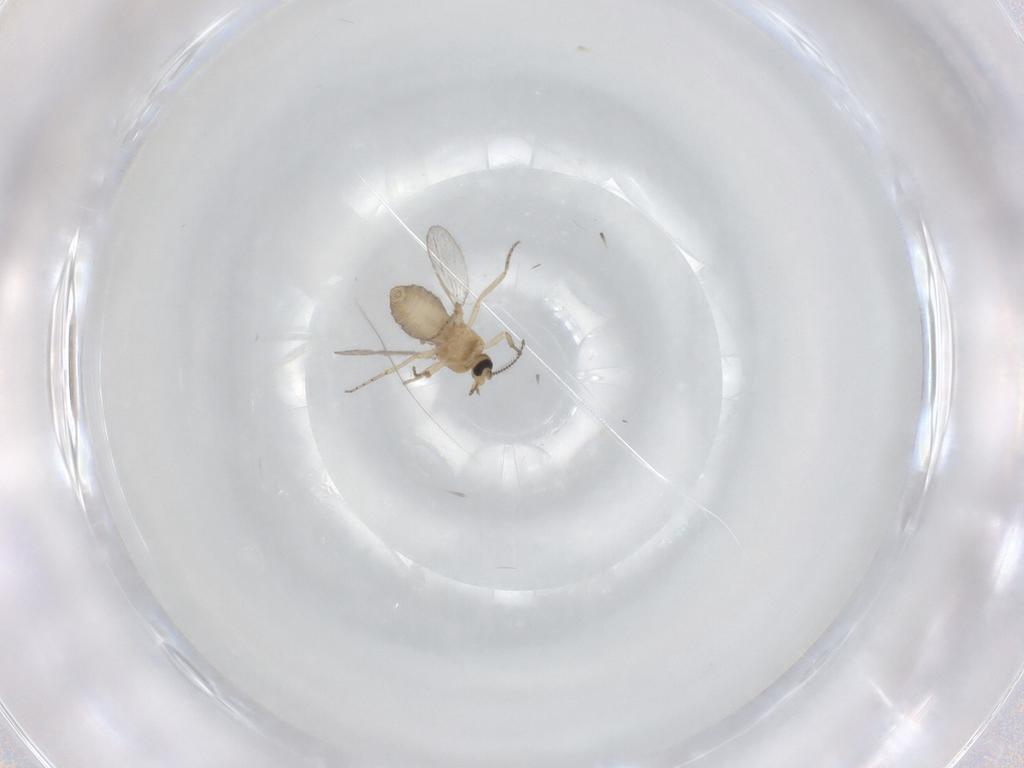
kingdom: Animalia
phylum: Arthropoda
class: Insecta
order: Diptera
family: Ceratopogonidae
